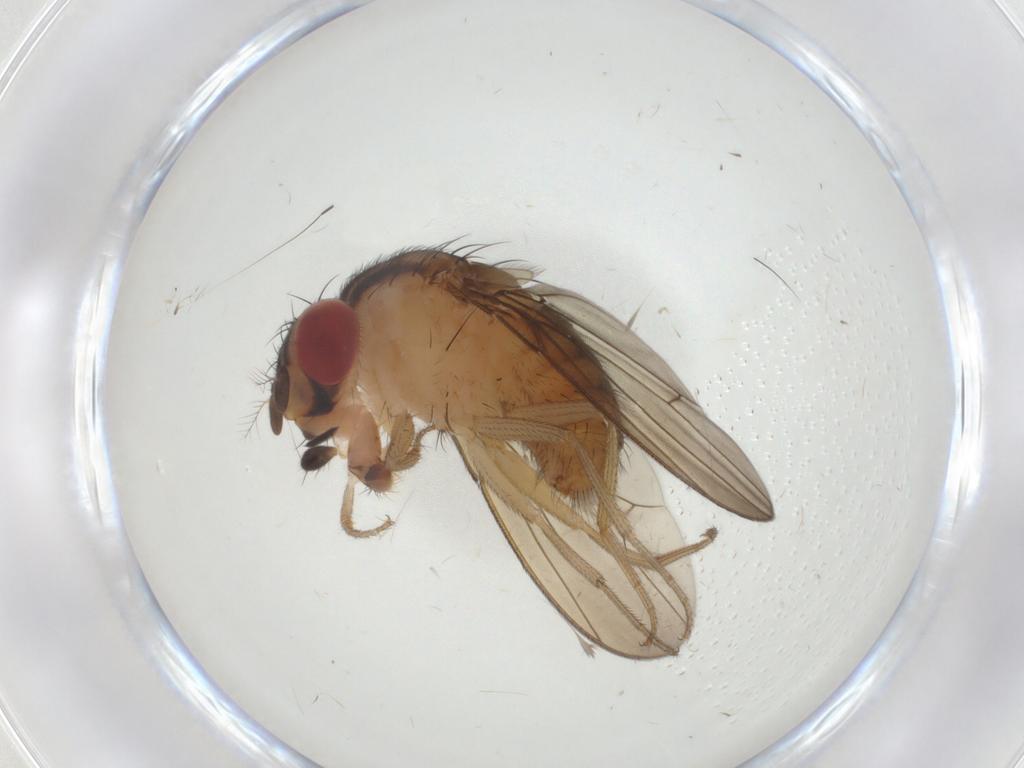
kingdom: Animalia
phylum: Arthropoda
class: Insecta
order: Diptera
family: Drosophilidae
